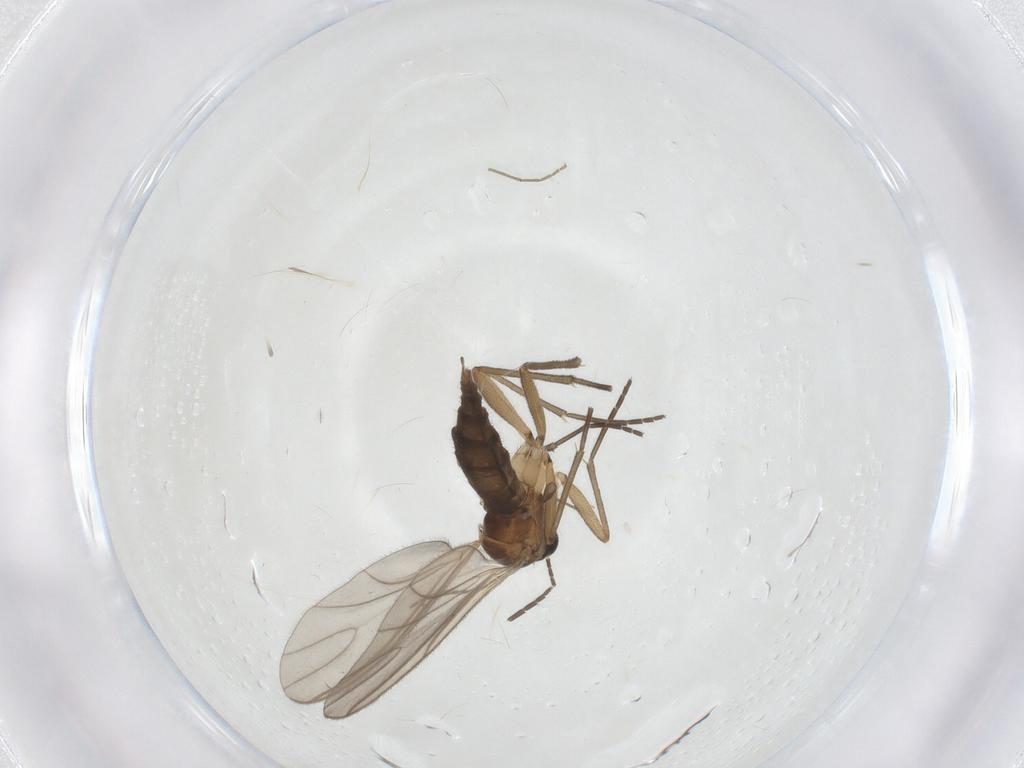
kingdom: Animalia
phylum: Arthropoda
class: Insecta
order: Diptera
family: Sciaridae
